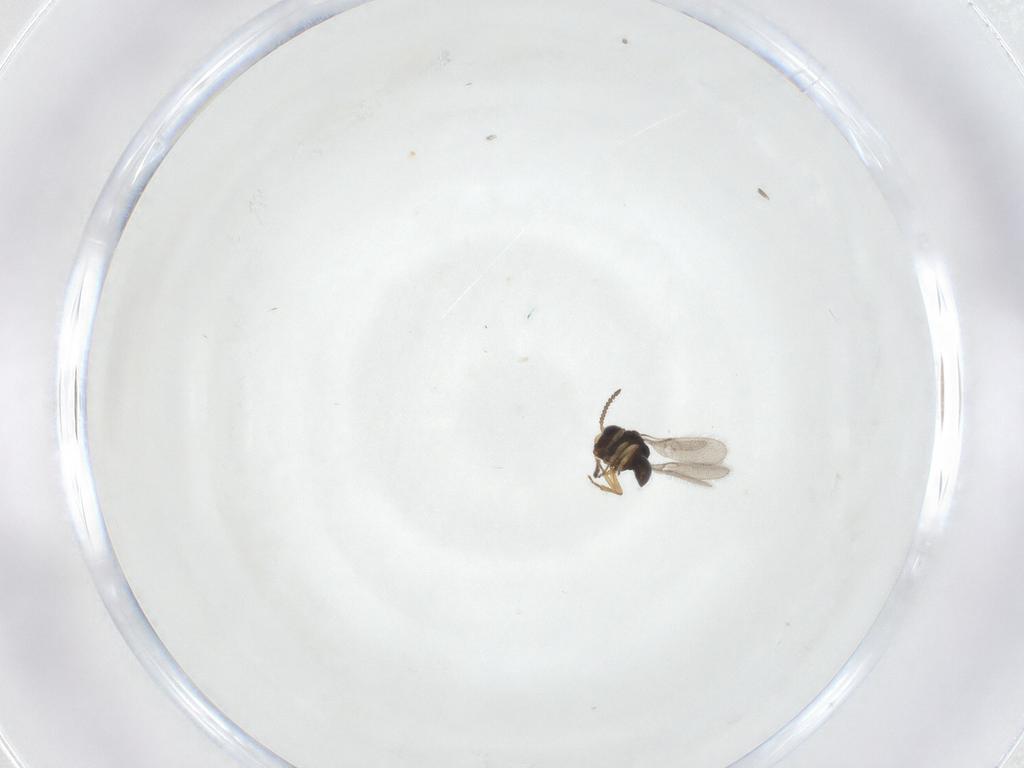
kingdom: Animalia
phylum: Arthropoda
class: Insecta
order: Hymenoptera
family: Scelionidae
